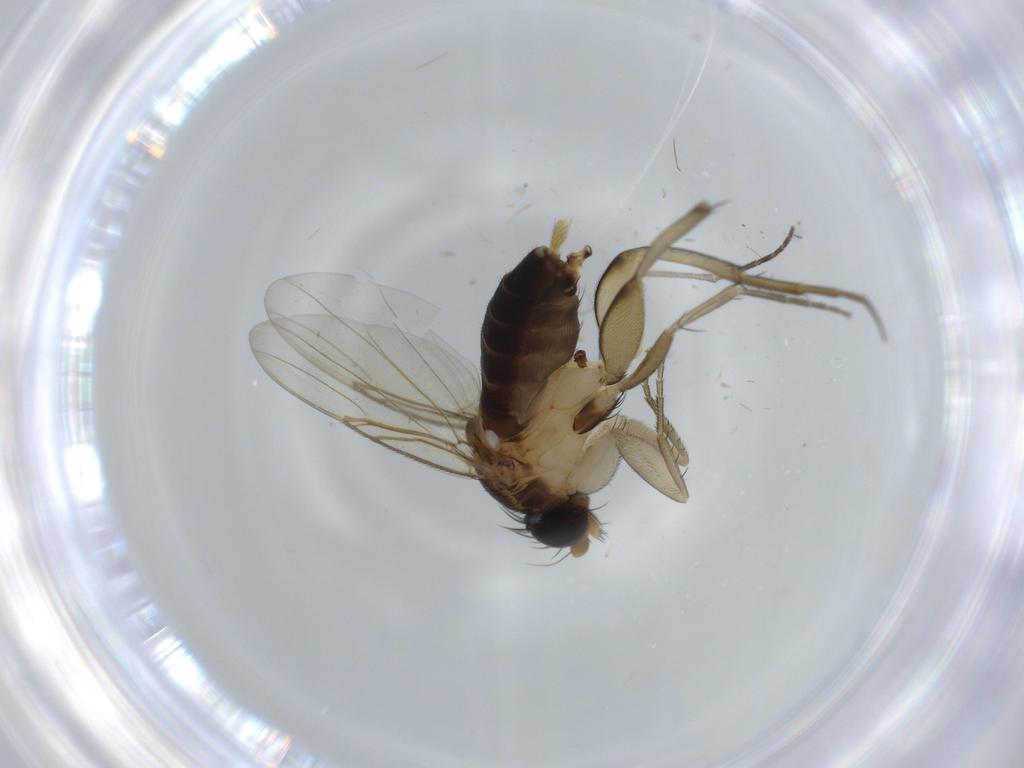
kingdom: Animalia
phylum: Arthropoda
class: Insecta
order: Diptera
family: Phoridae
